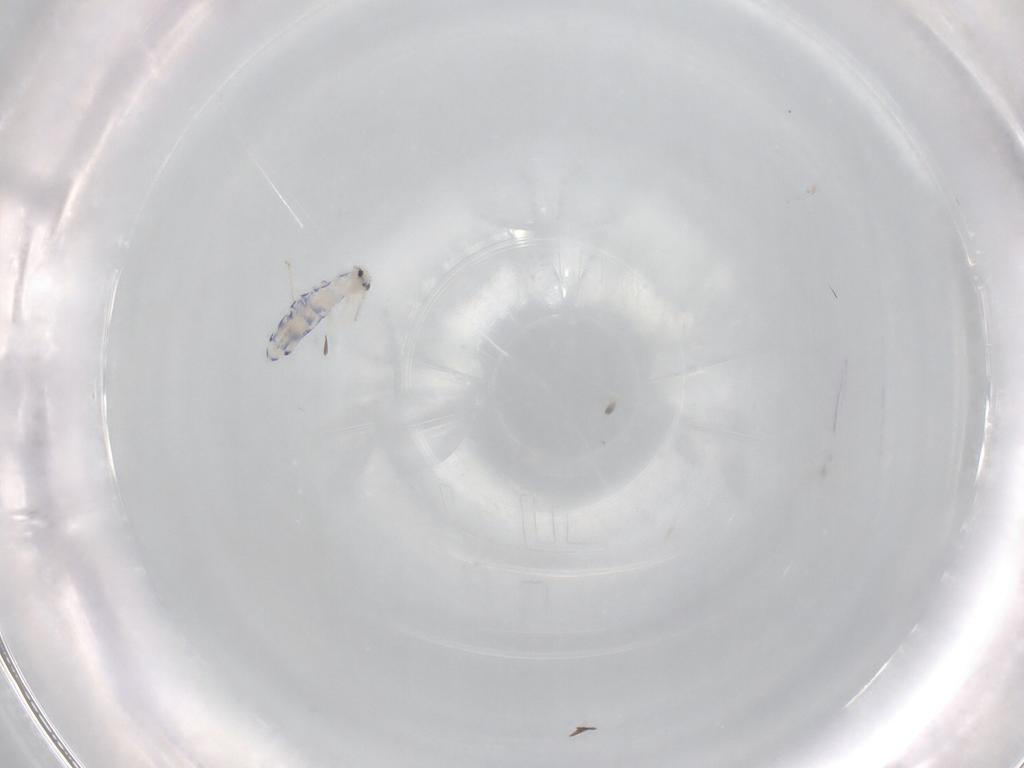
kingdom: Animalia
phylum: Arthropoda
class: Collembola
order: Entomobryomorpha
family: Entomobryidae
